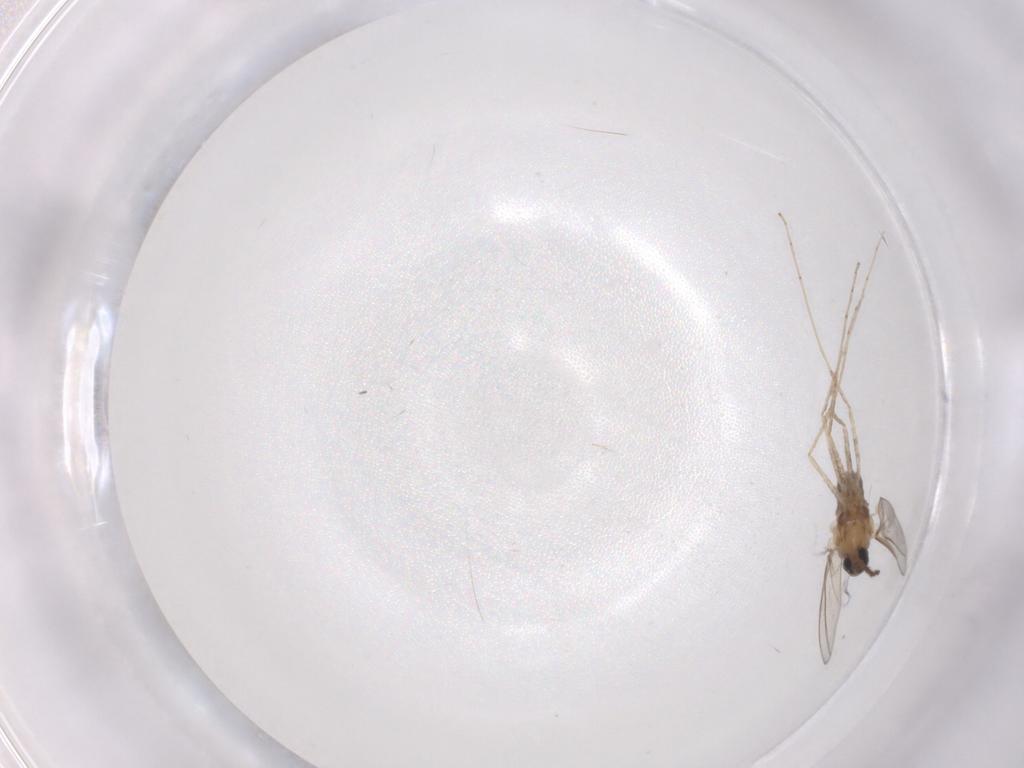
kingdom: Animalia
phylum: Arthropoda
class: Insecta
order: Diptera
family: Cecidomyiidae
